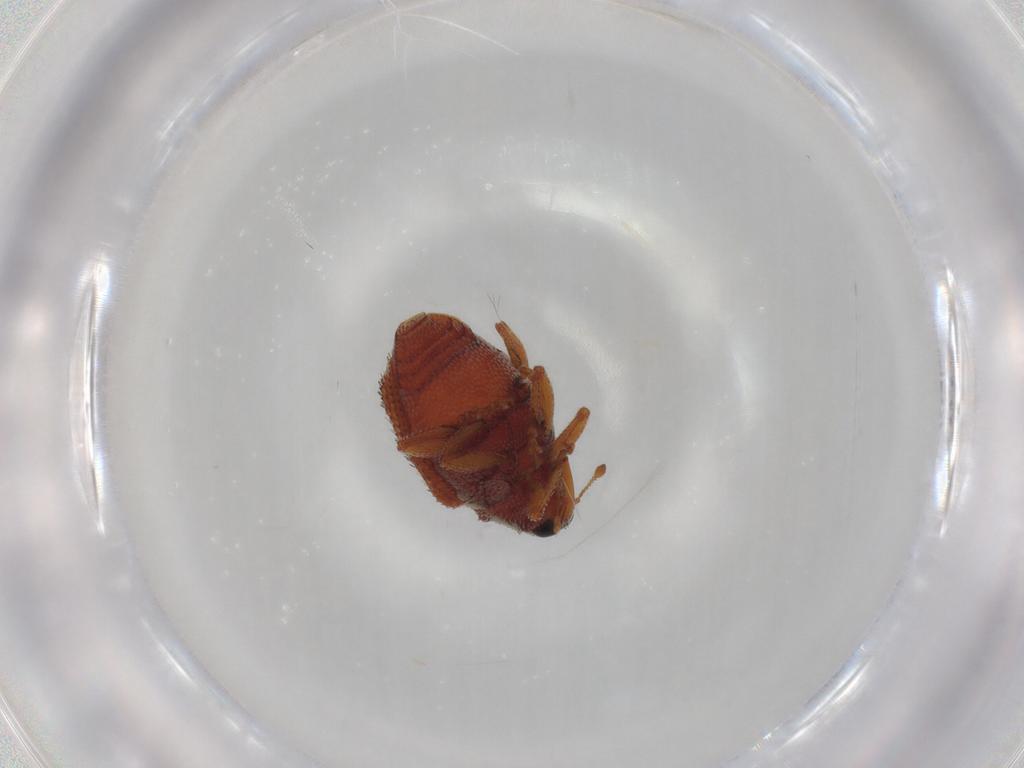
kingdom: Animalia
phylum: Arthropoda
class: Insecta
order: Coleoptera
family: Curculionidae
